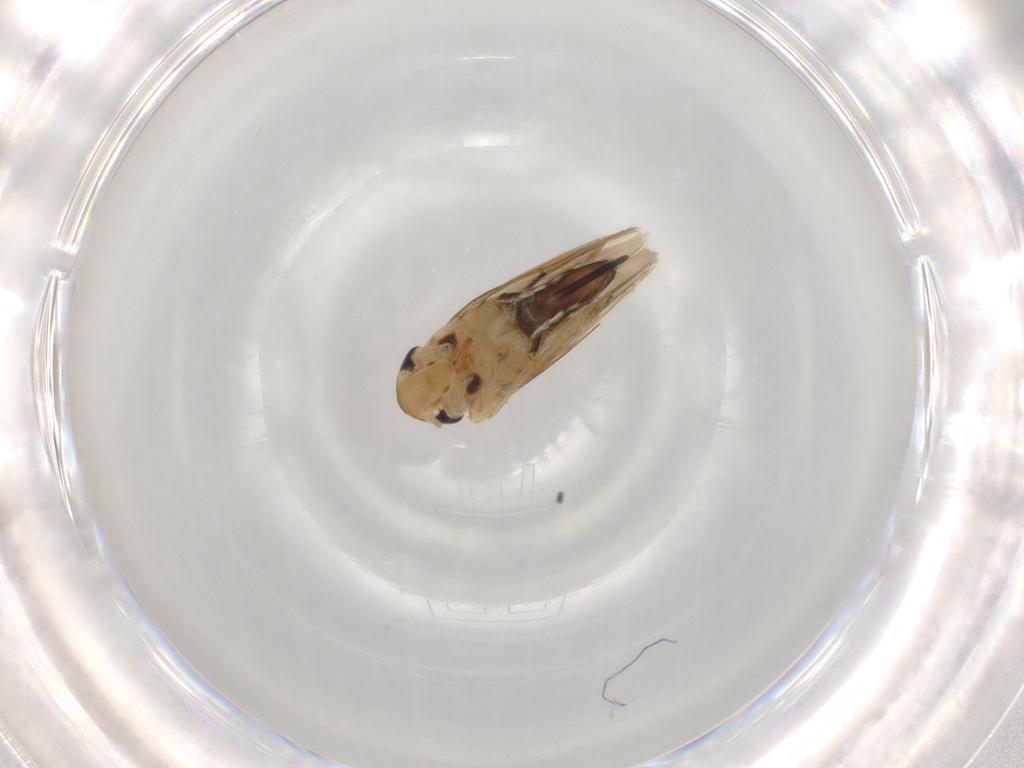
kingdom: Animalia
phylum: Arthropoda
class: Insecta
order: Hemiptera
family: Cicadellidae
